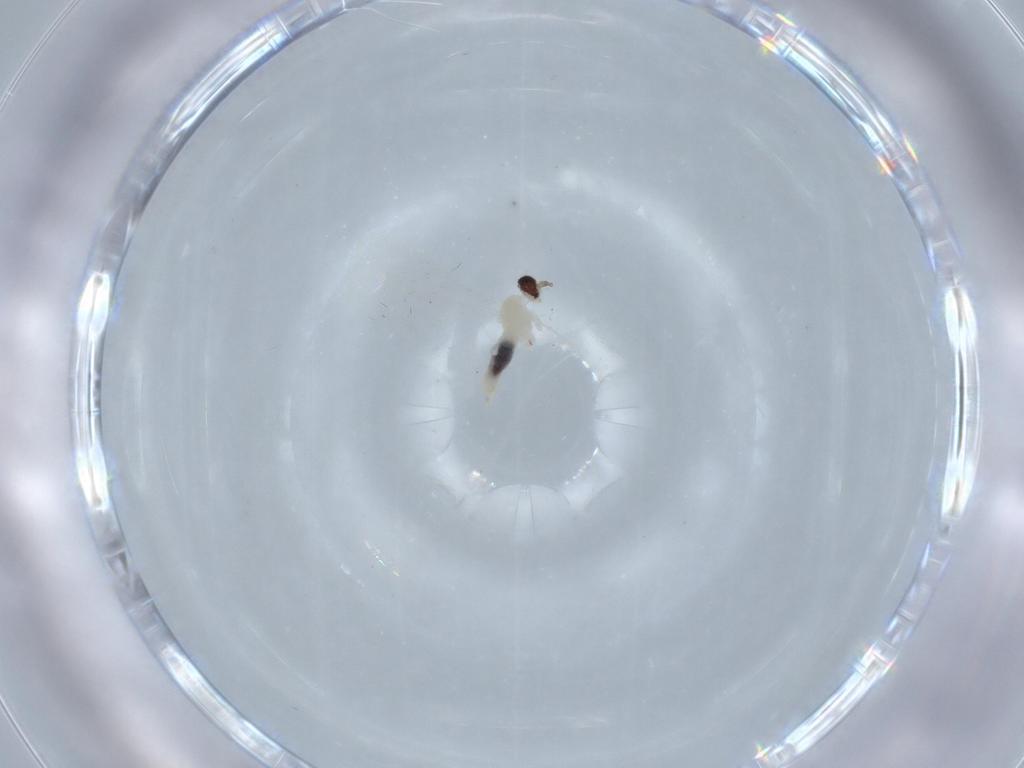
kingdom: Animalia
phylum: Arthropoda
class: Insecta
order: Diptera
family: Cecidomyiidae
